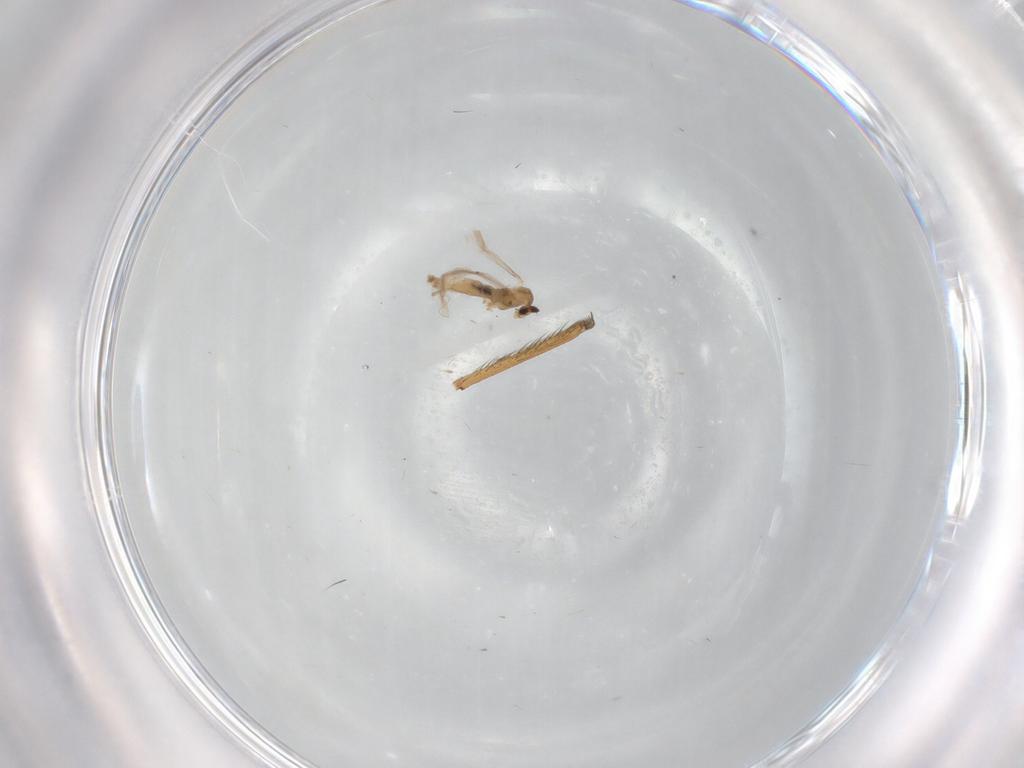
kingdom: Animalia
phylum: Arthropoda
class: Insecta
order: Diptera
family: Cecidomyiidae
